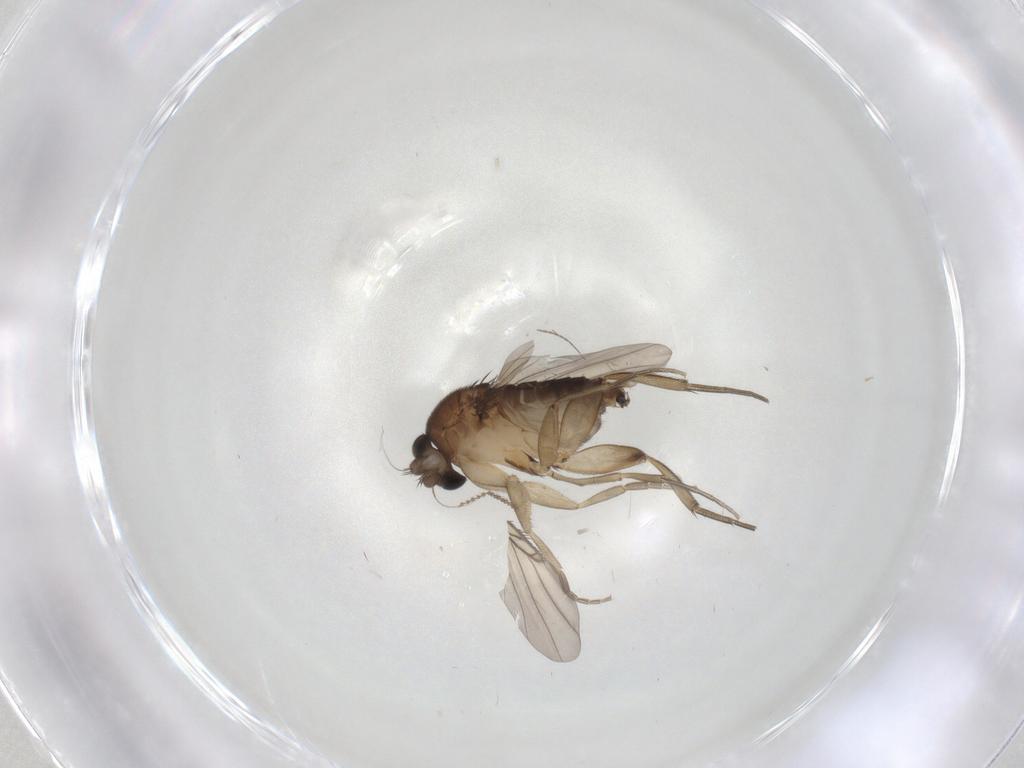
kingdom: Animalia
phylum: Arthropoda
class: Insecta
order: Diptera
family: Phoridae
